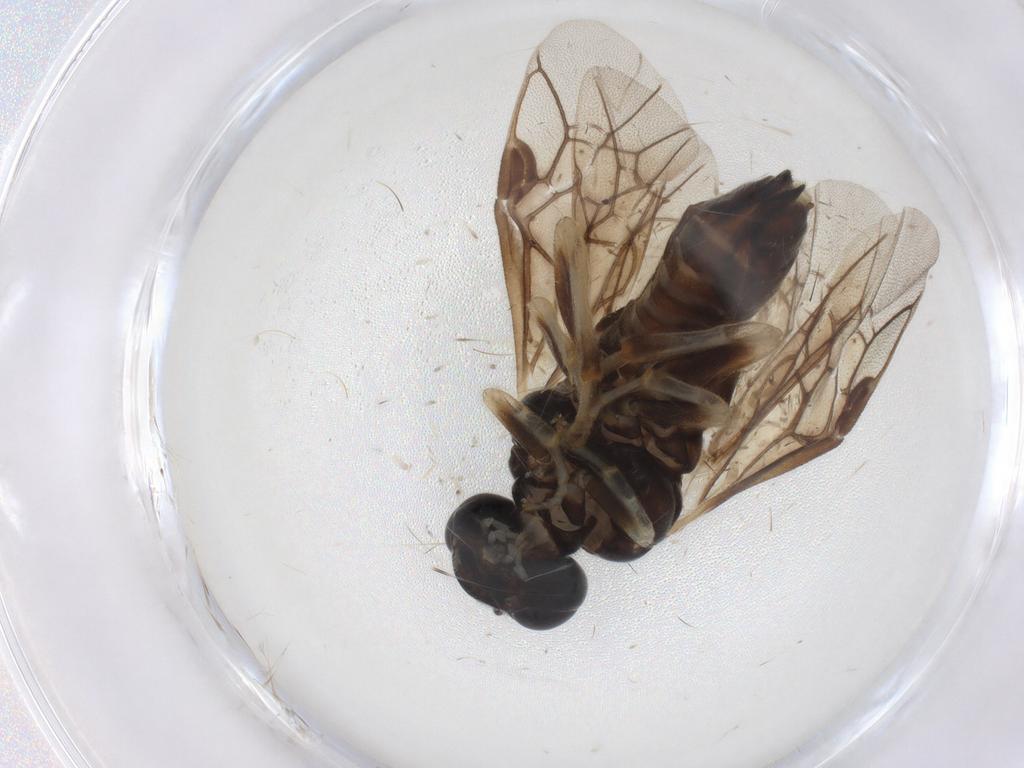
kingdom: Animalia
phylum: Arthropoda
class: Insecta
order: Hymenoptera
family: Argidae
